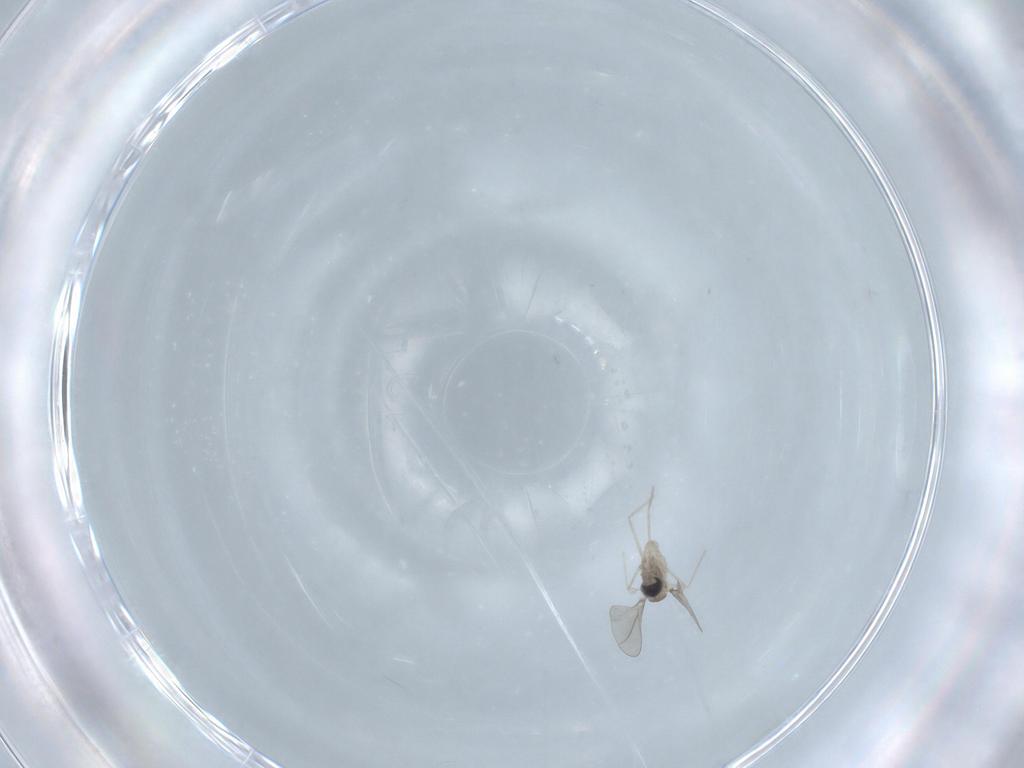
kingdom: Animalia
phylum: Arthropoda
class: Insecta
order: Diptera
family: Cecidomyiidae
